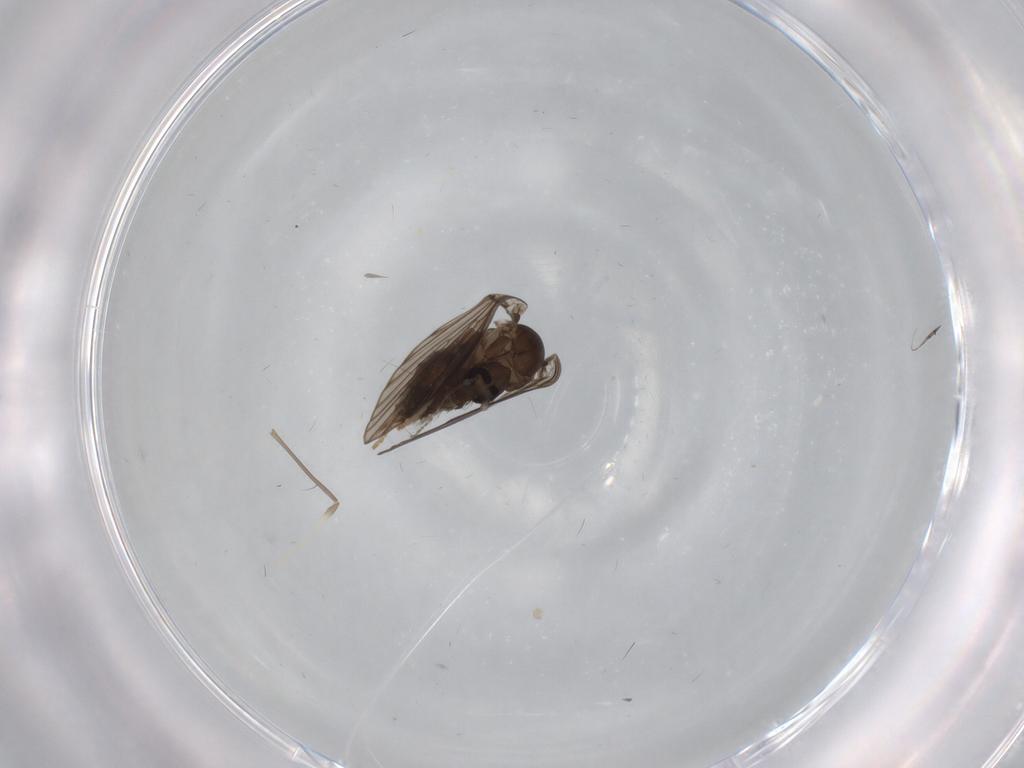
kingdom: Animalia
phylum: Arthropoda
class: Insecta
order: Diptera
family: Psychodidae
